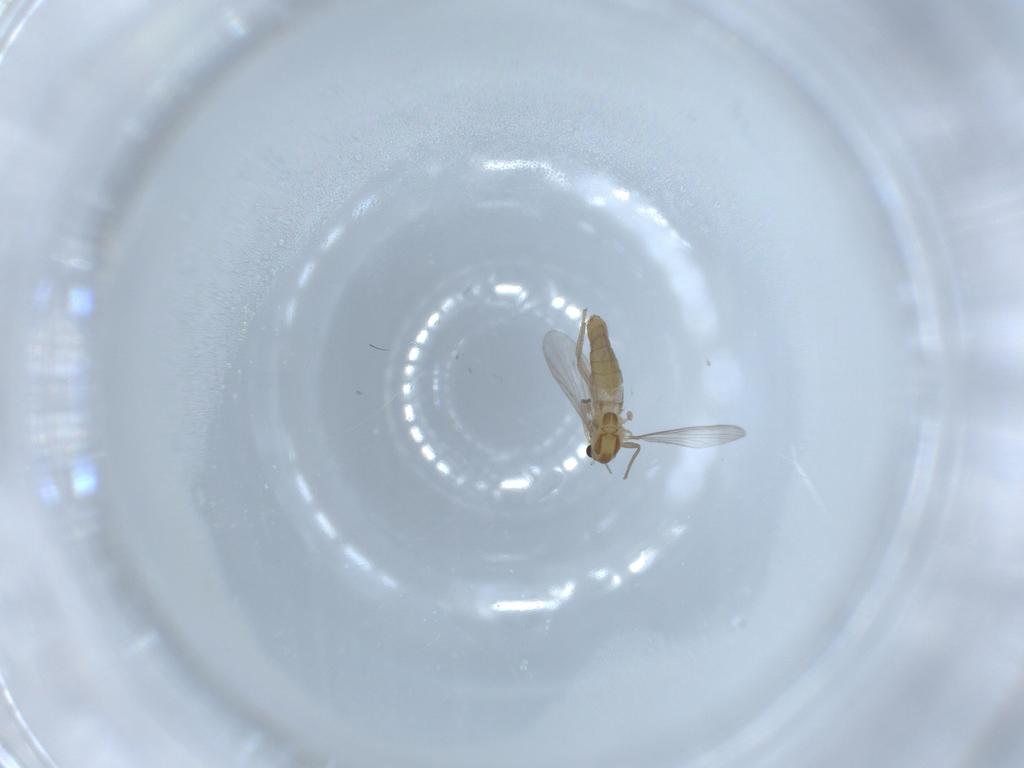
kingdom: Animalia
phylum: Arthropoda
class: Insecta
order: Diptera
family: Chironomidae
